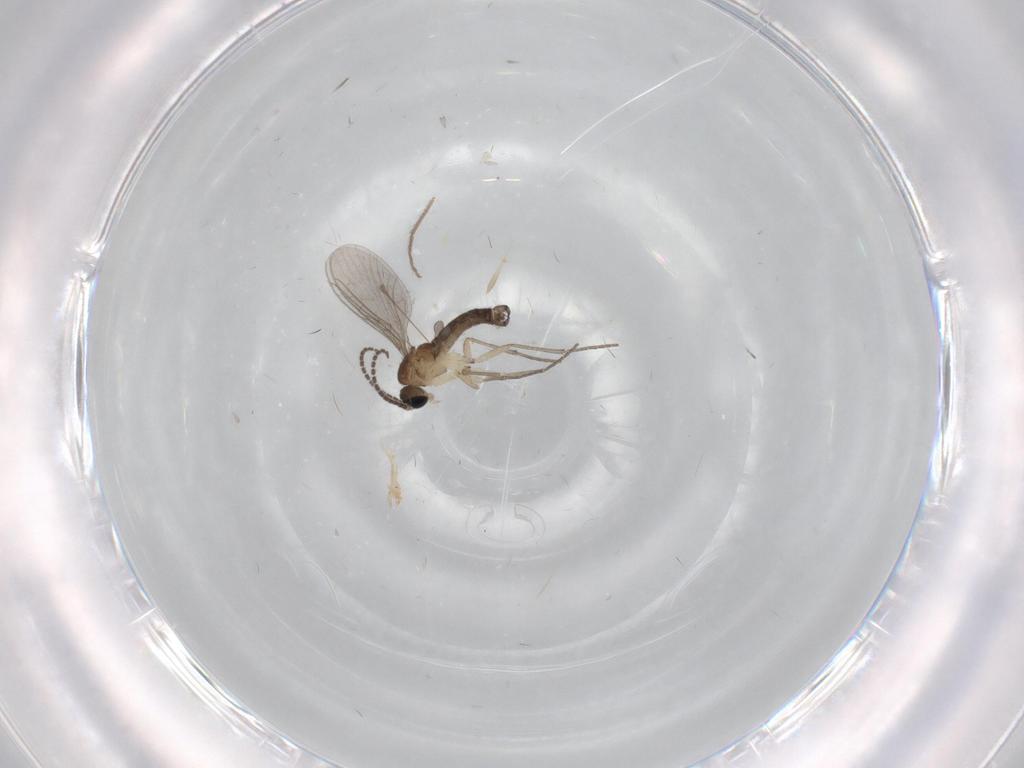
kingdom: Animalia
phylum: Arthropoda
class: Insecta
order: Diptera
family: Sciaridae
